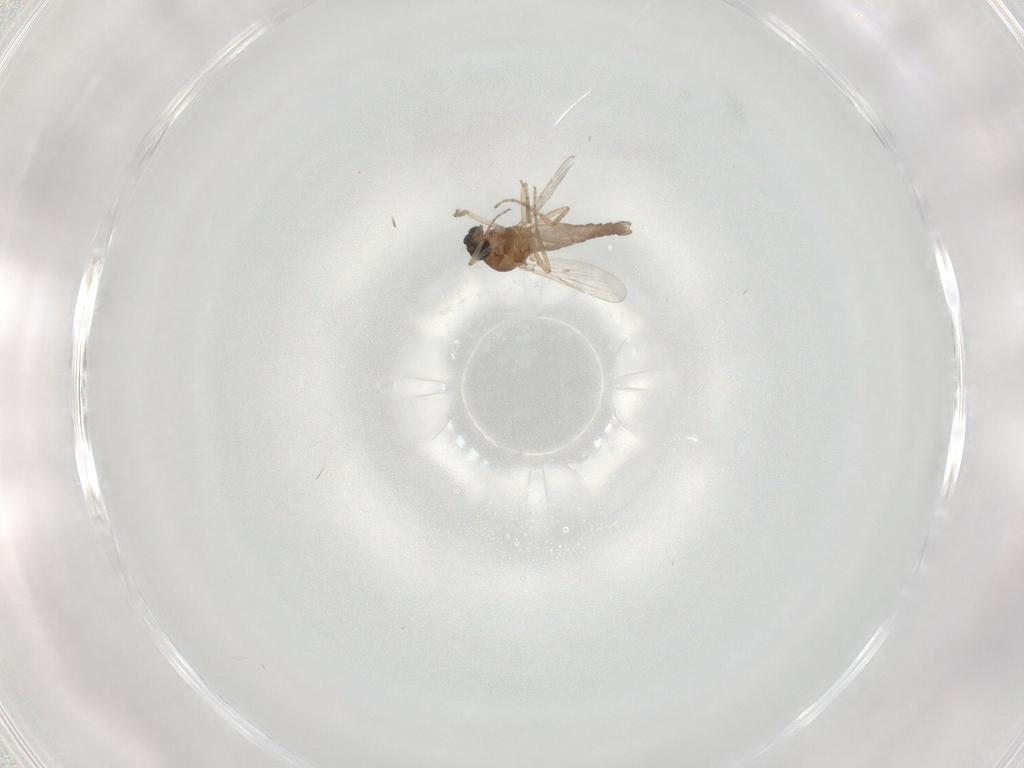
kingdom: Animalia
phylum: Arthropoda
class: Insecta
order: Diptera
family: Dolichopodidae
